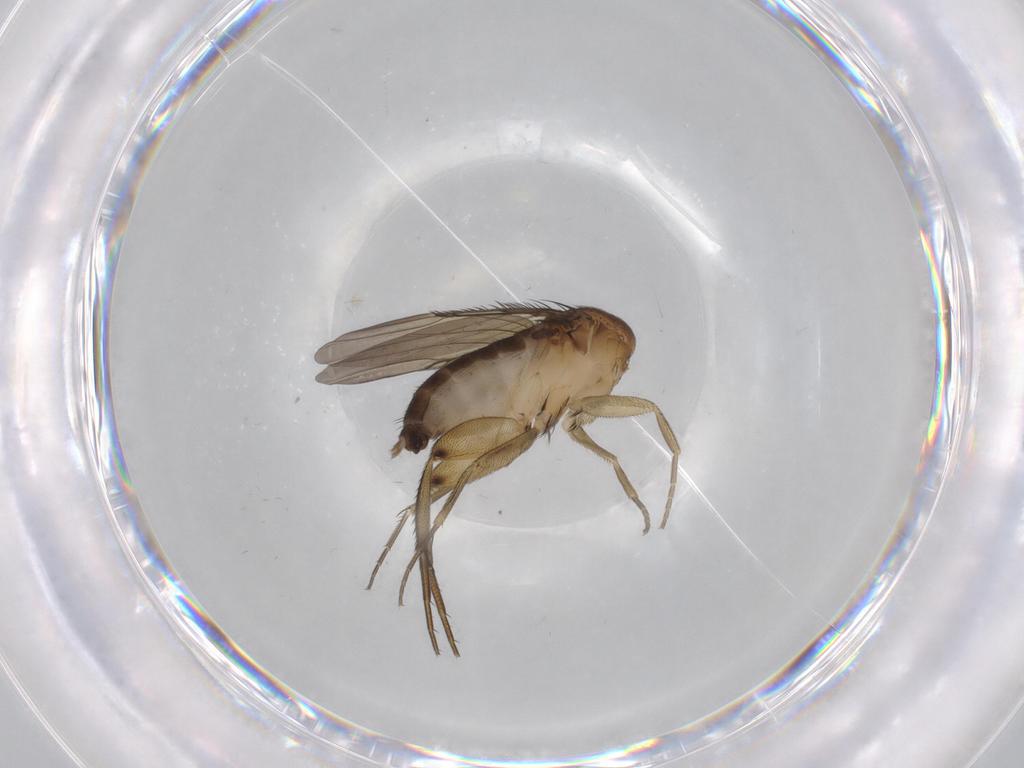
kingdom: Animalia
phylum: Arthropoda
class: Insecta
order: Diptera
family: Phoridae
